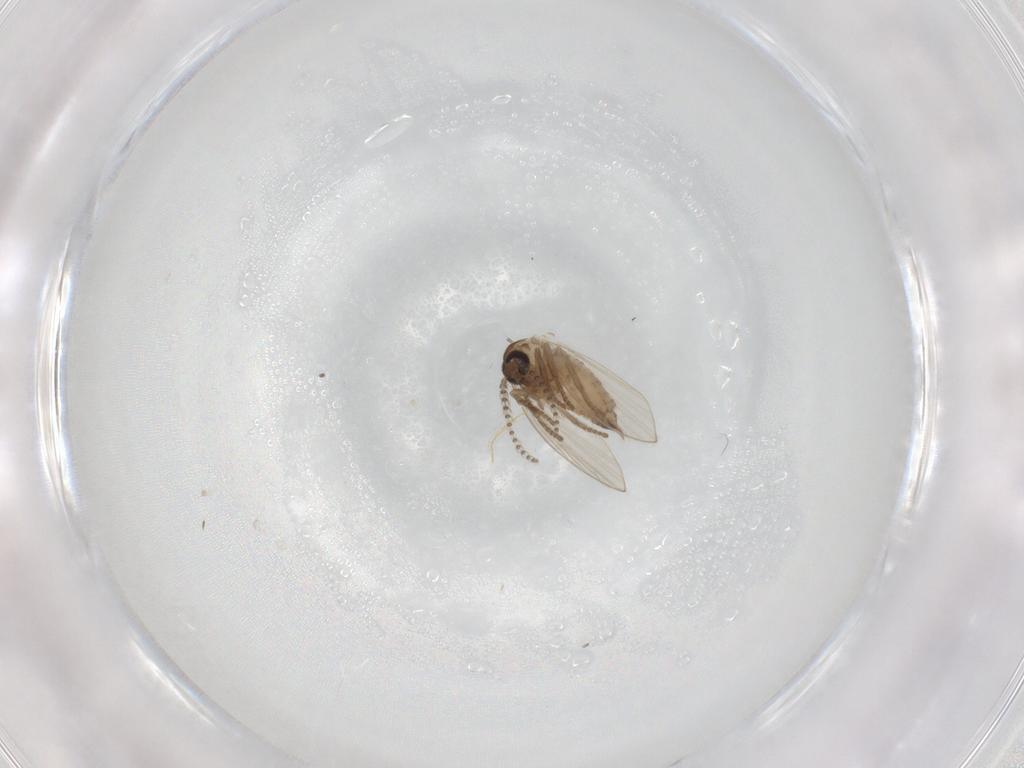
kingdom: Animalia
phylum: Arthropoda
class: Insecta
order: Diptera
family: Psychodidae
